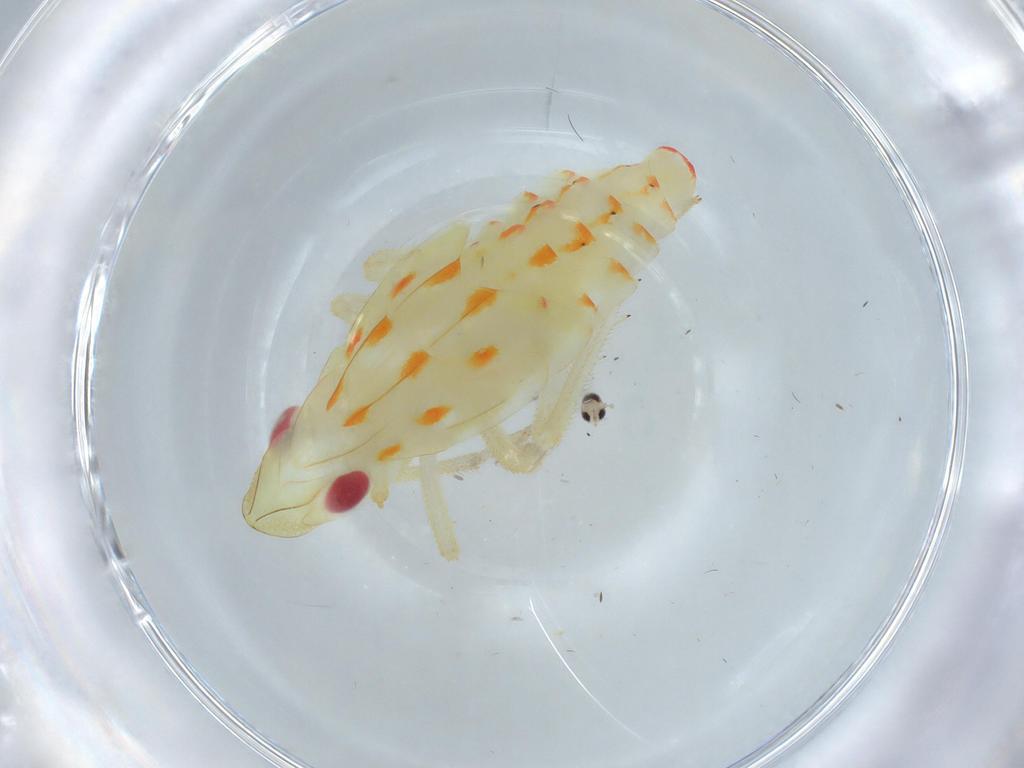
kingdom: Animalia
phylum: Arthropoda
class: Insecta
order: Hemiptera
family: Tropiduchidae
